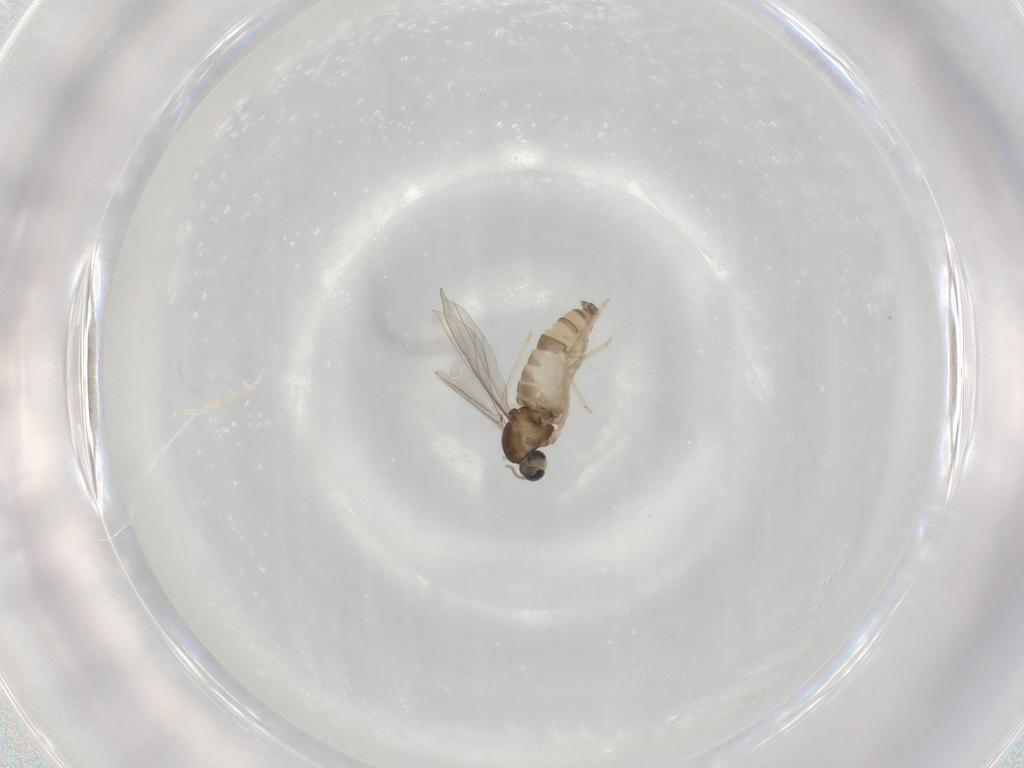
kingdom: Animalia
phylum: Arthropoda
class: Insecta
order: Diptera
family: Cecidomyiidae
